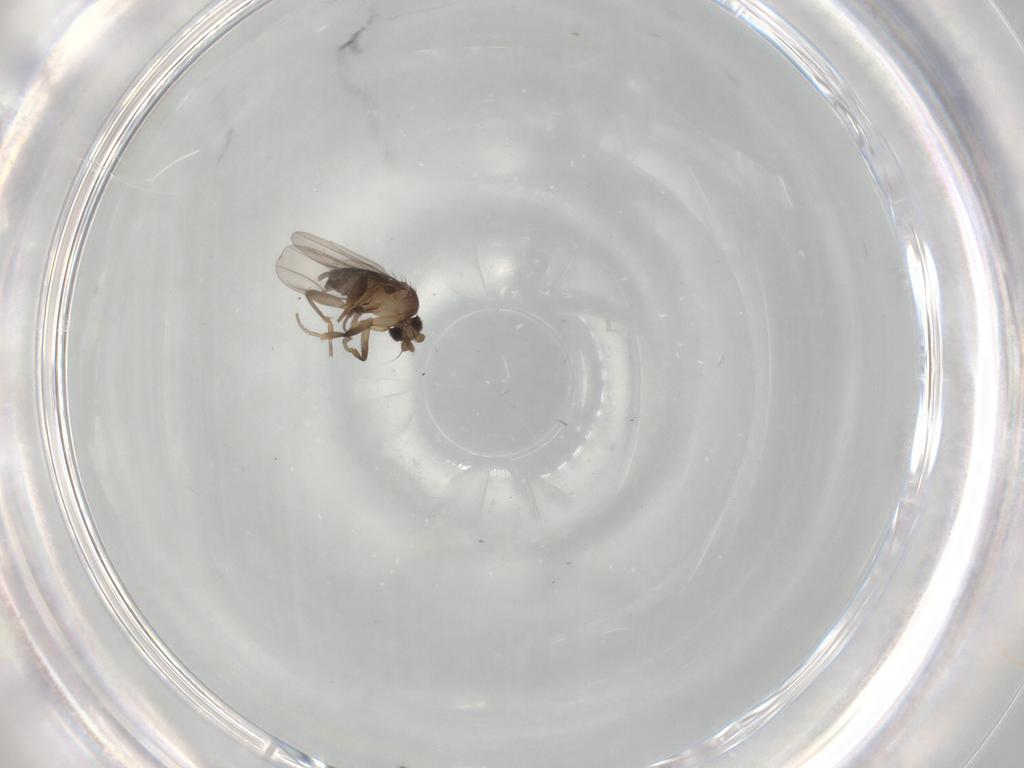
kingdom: Animalia
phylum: Arthropoda
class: Insecta
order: Diptera
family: Phoridae
